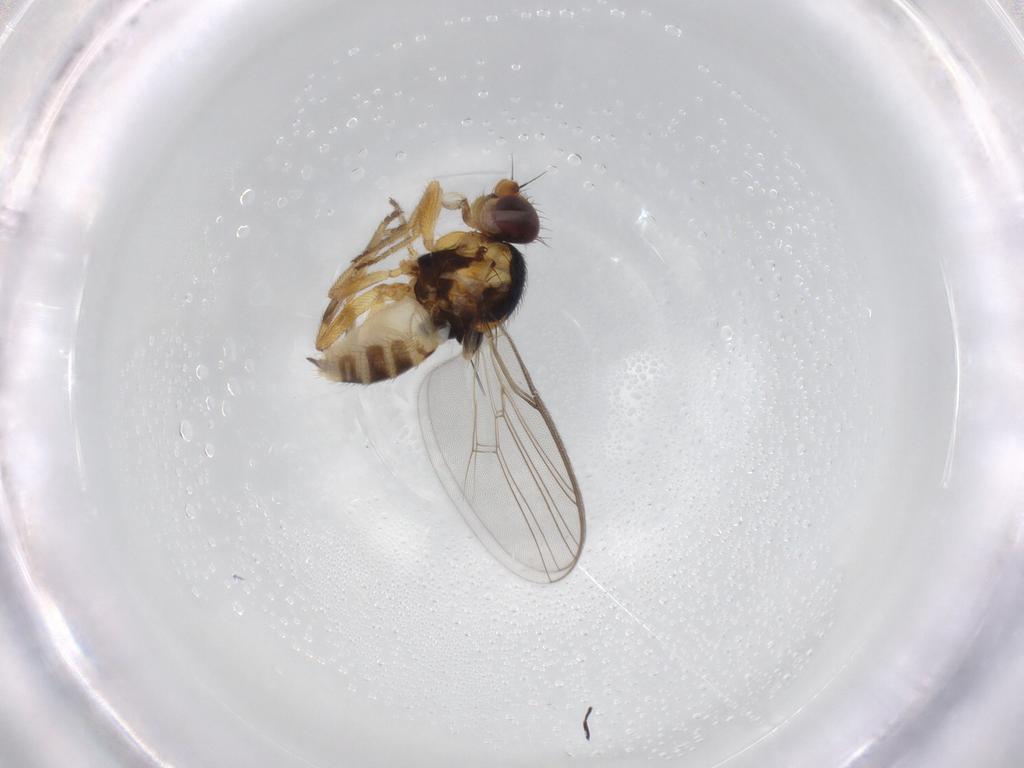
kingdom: Animalia
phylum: Arthropoda
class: Insecta
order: Diptera
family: Chloropidae
